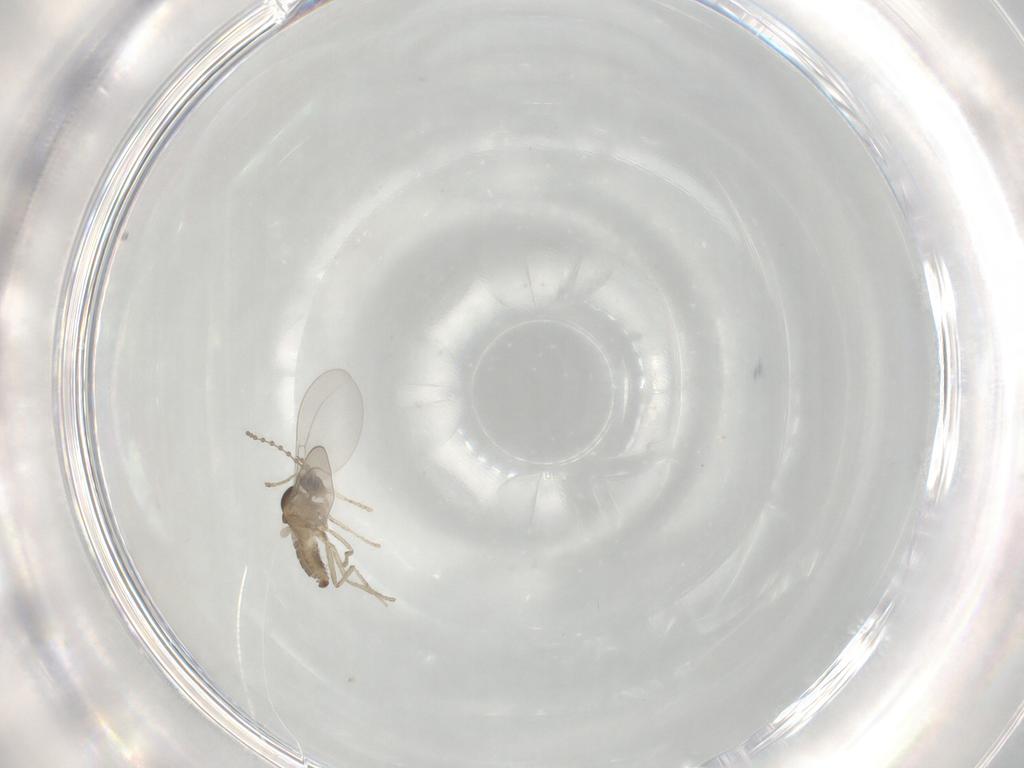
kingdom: Animalia
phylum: Arthropoda
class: Insecta
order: Diptera
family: Cecidomyiidae
